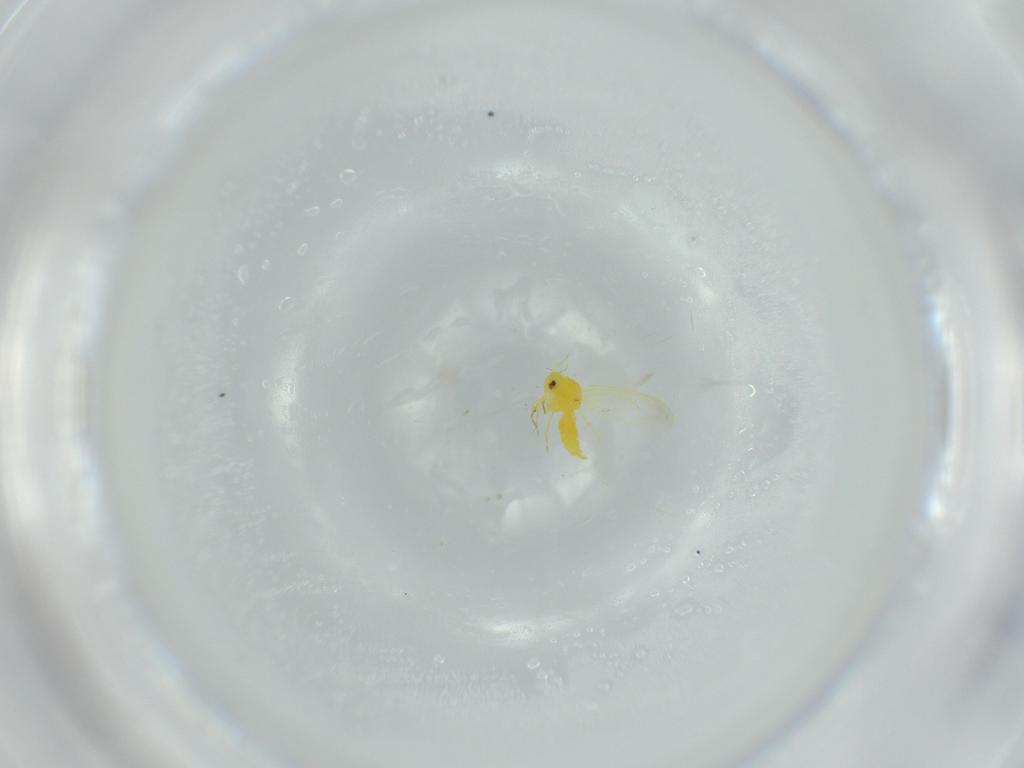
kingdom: Animalia
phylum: Arthropoda
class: Insecta
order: Hemiptera
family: Aleyrodidae
